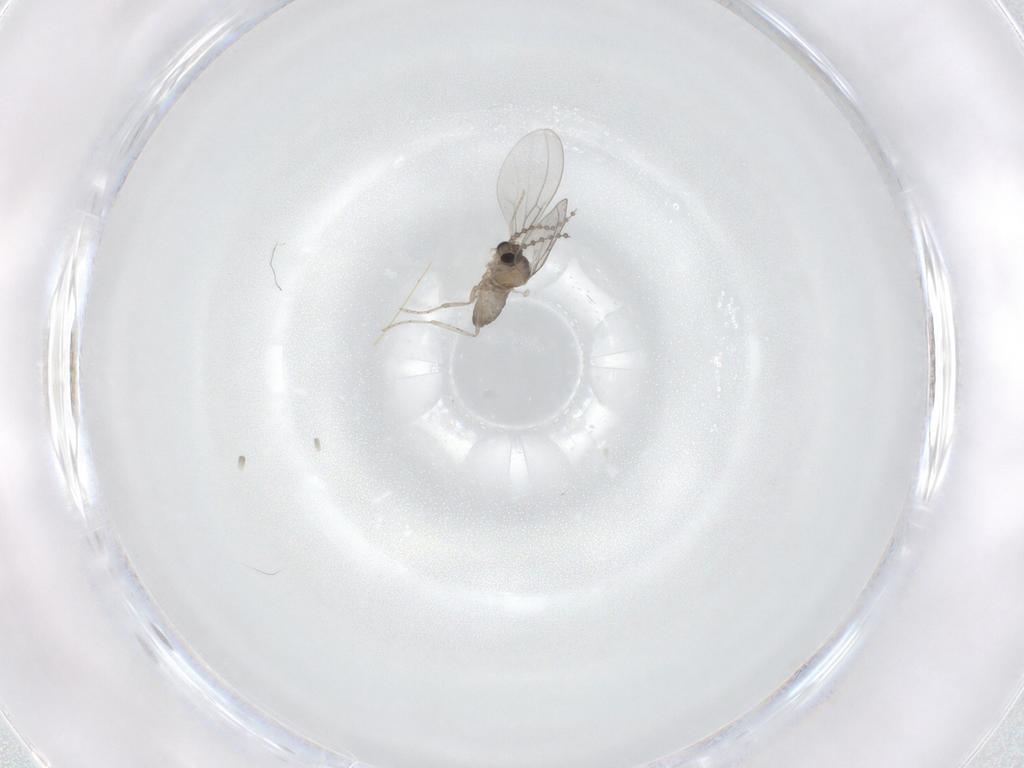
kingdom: Animalia
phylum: Arthropoda
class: Insecta
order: Diptera
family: Cecidomyiidae
